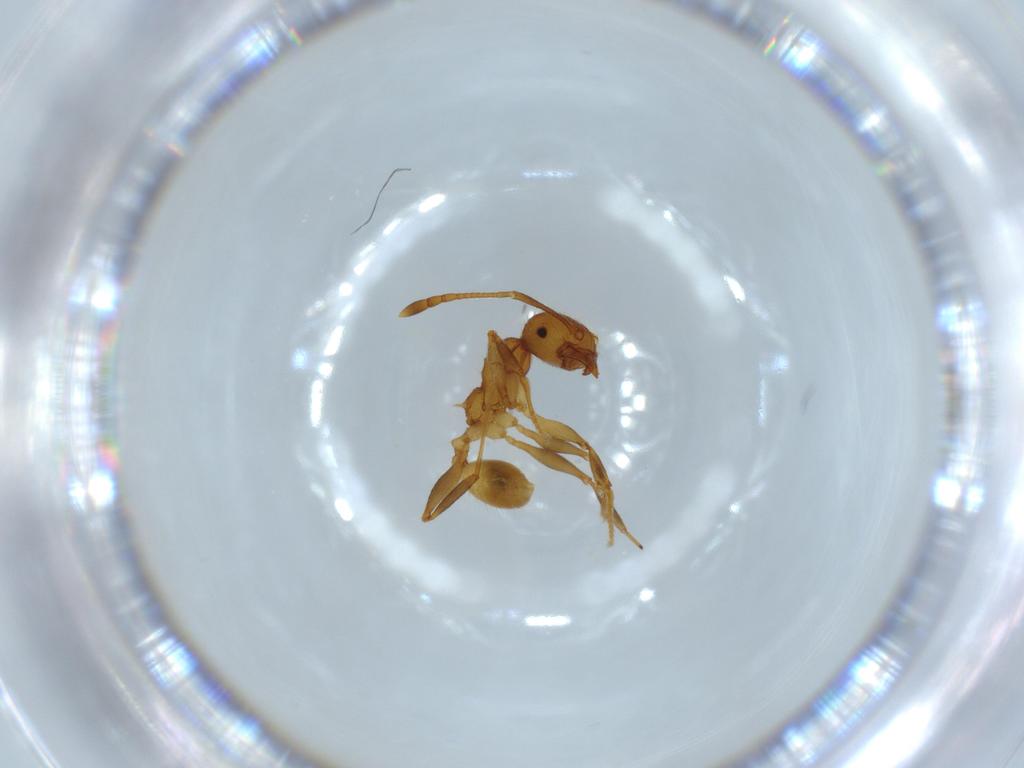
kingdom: Animalia
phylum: Arthropoda
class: Insecta
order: Hymenoptera
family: Formicidae
